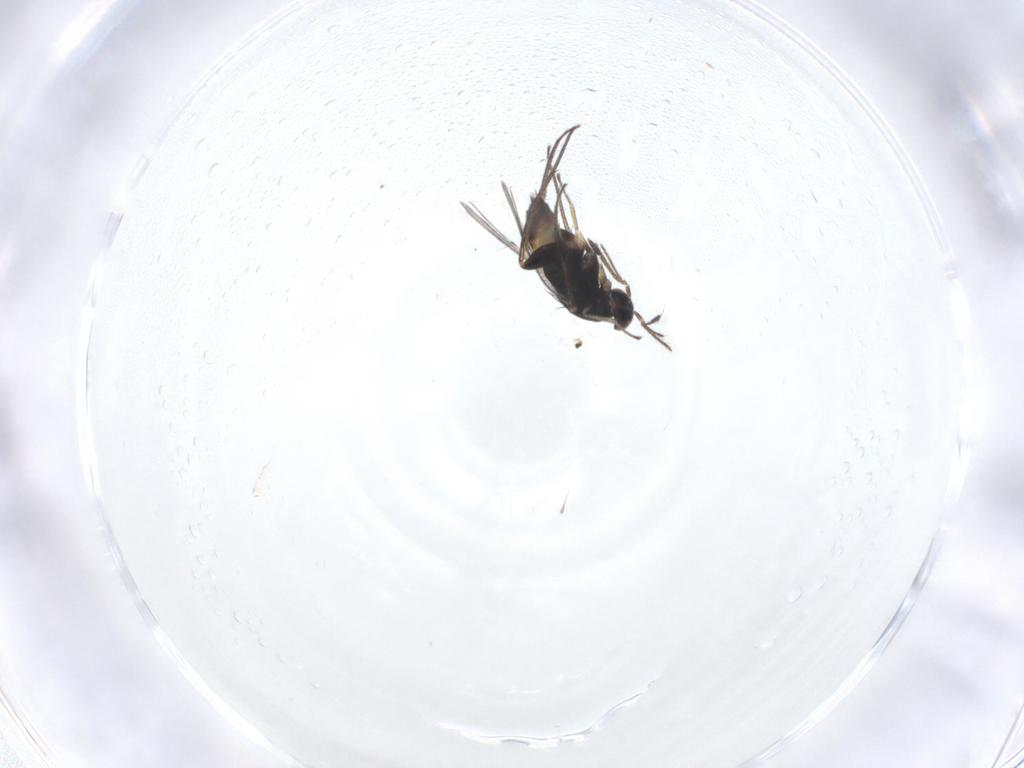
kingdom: Animalia
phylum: Arthropoda
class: Insecta
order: Hymenoptera
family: Eulophidae
